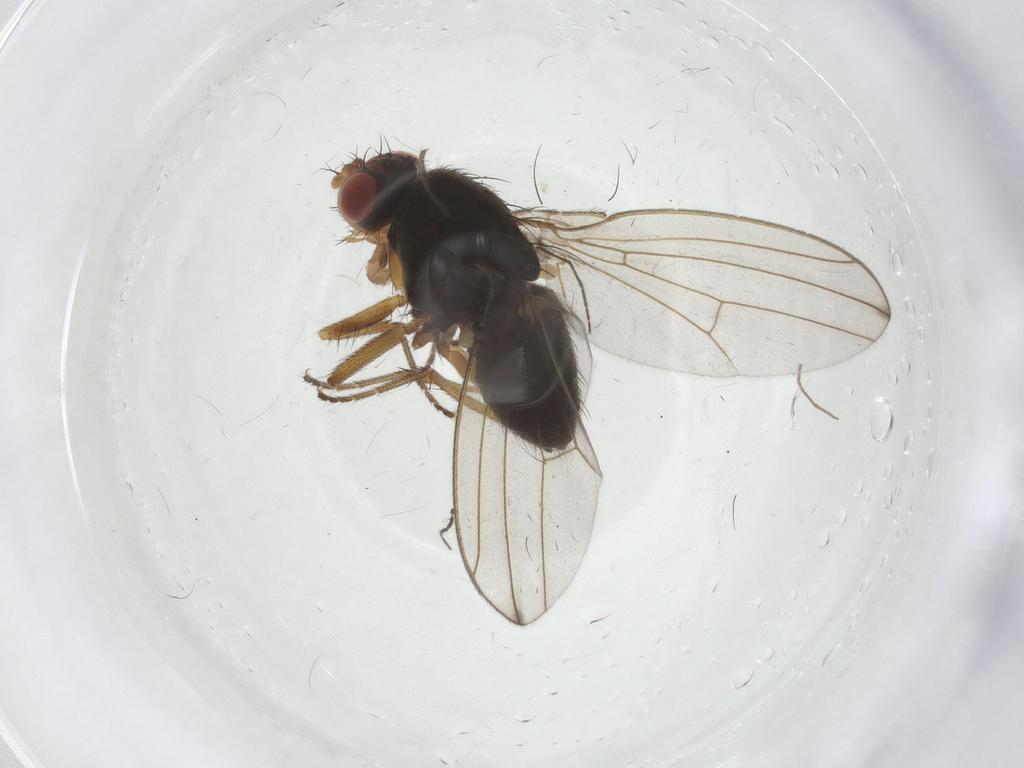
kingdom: Animalia
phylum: Arthropoda
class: Insecta
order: Diptera
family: Drosophilidae
